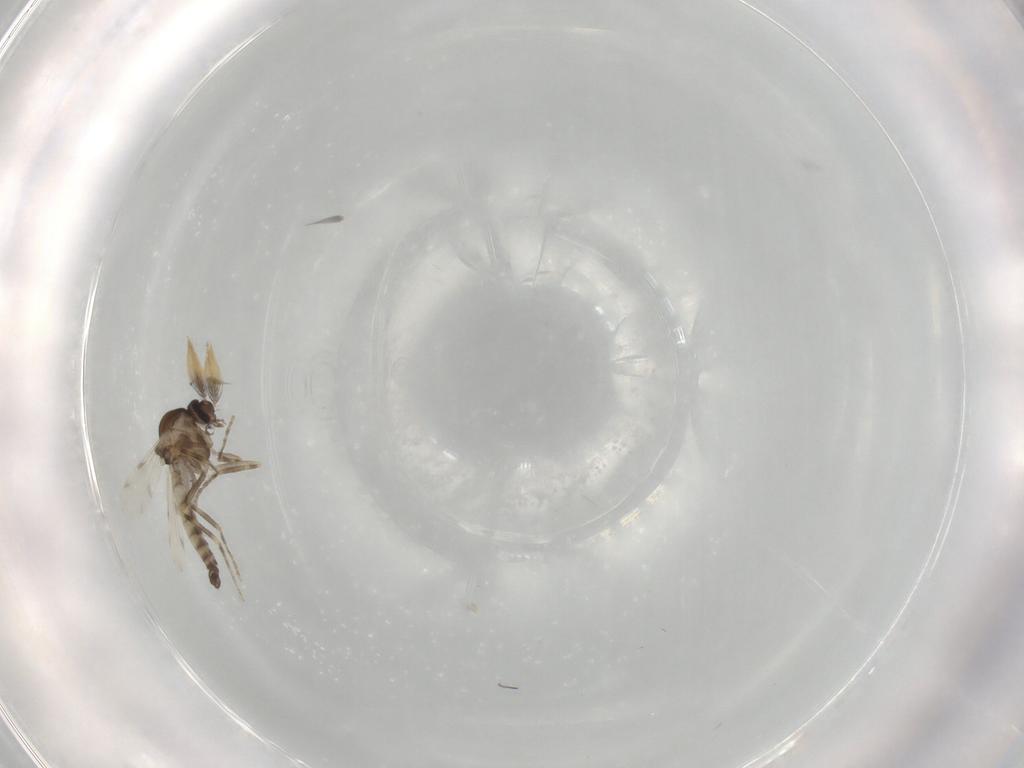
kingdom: Animalia
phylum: Arthropoda
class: Insecta
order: Diptera
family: Ceratopogonidae
